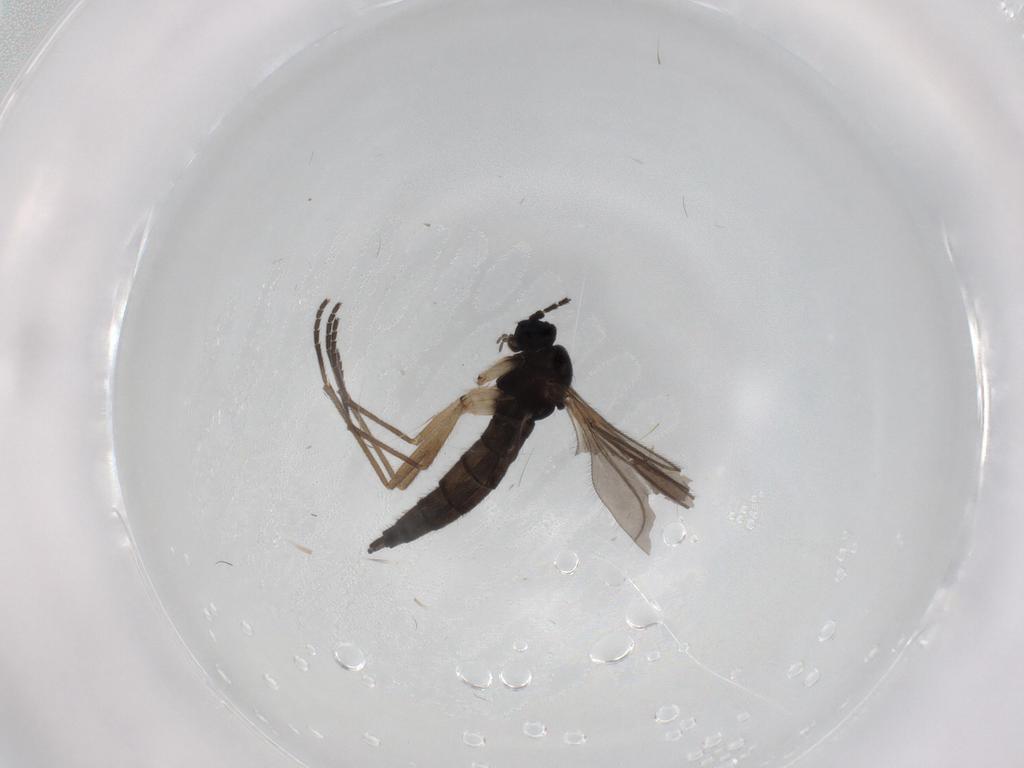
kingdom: Animalia
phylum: Arthropoda
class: Insecta
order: Diptera
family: Sciaridae
